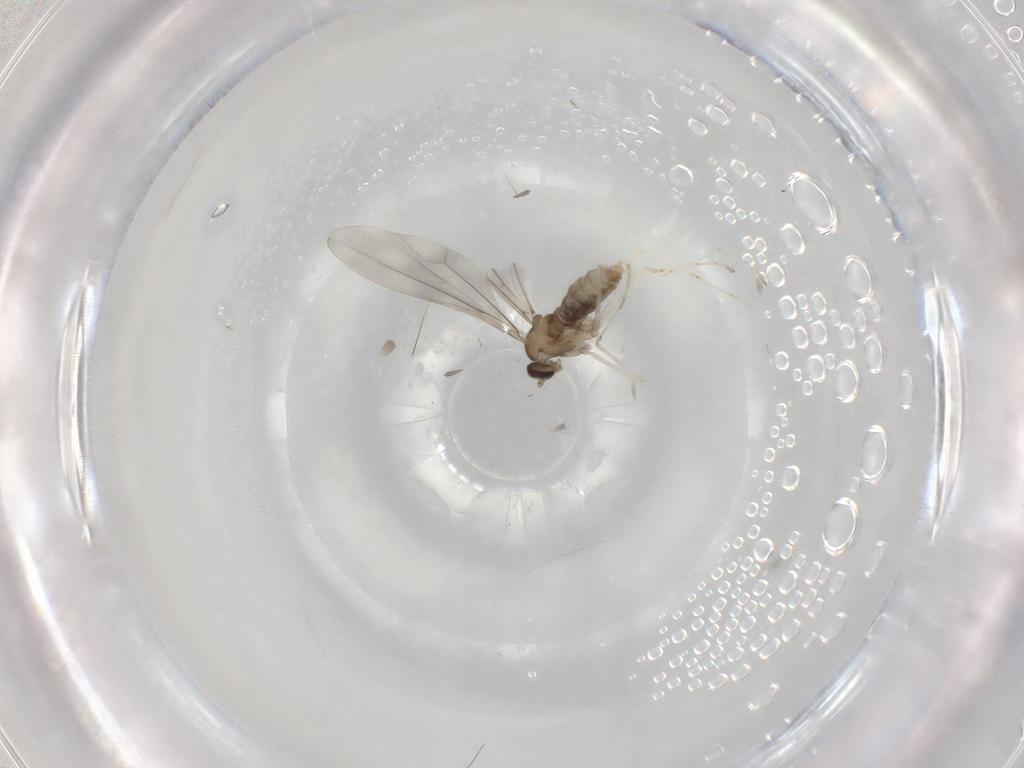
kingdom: Animalia
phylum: Arthropoda
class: Insecta
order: Diptera
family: Cecidomyiidae
